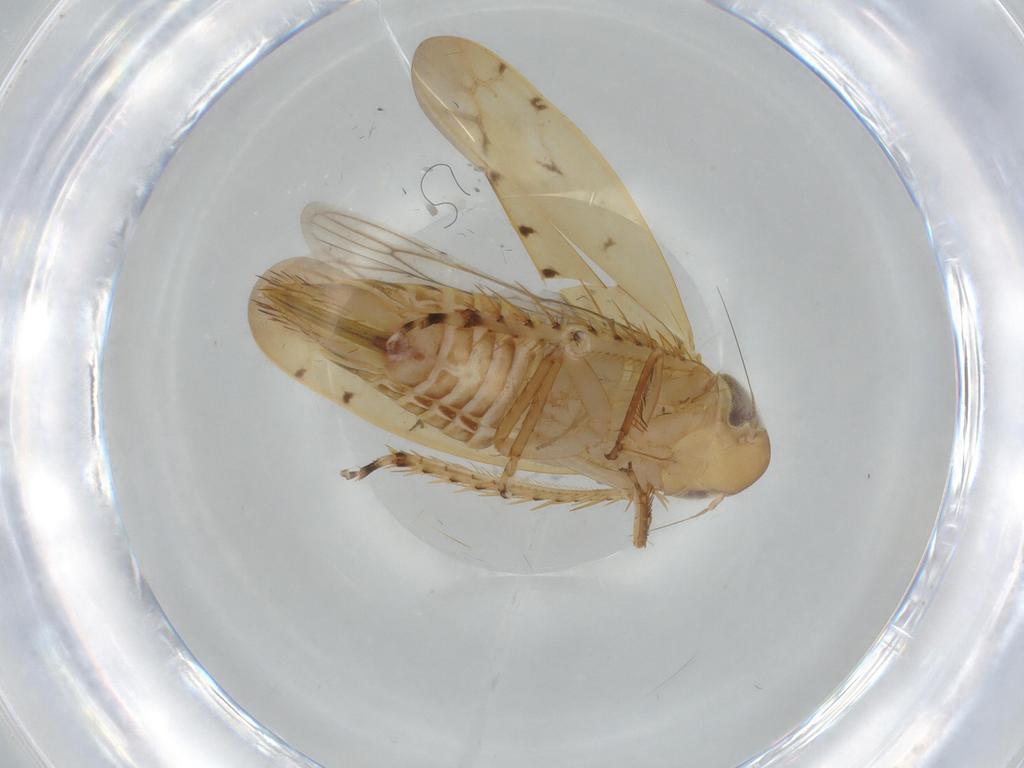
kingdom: Animalia
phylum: Arthropoda
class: Insecta
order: Hemiptera
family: Coreidae
